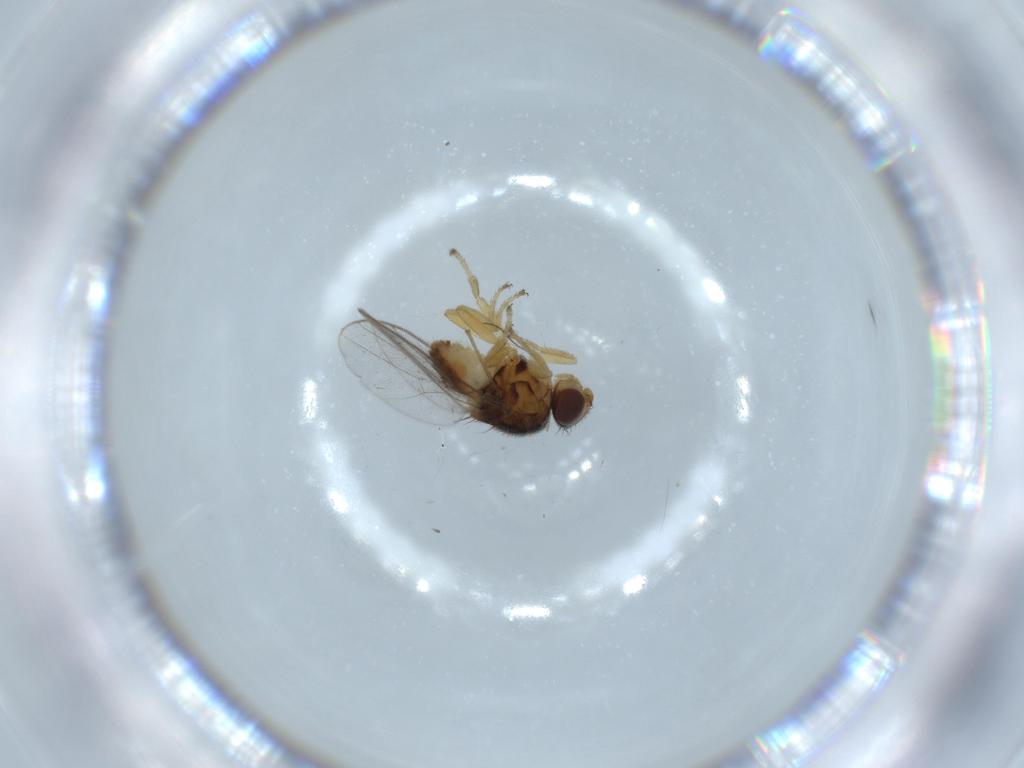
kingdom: Animalia
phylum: Arthropoda
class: Insecta
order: Diptera
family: Chloropidae
